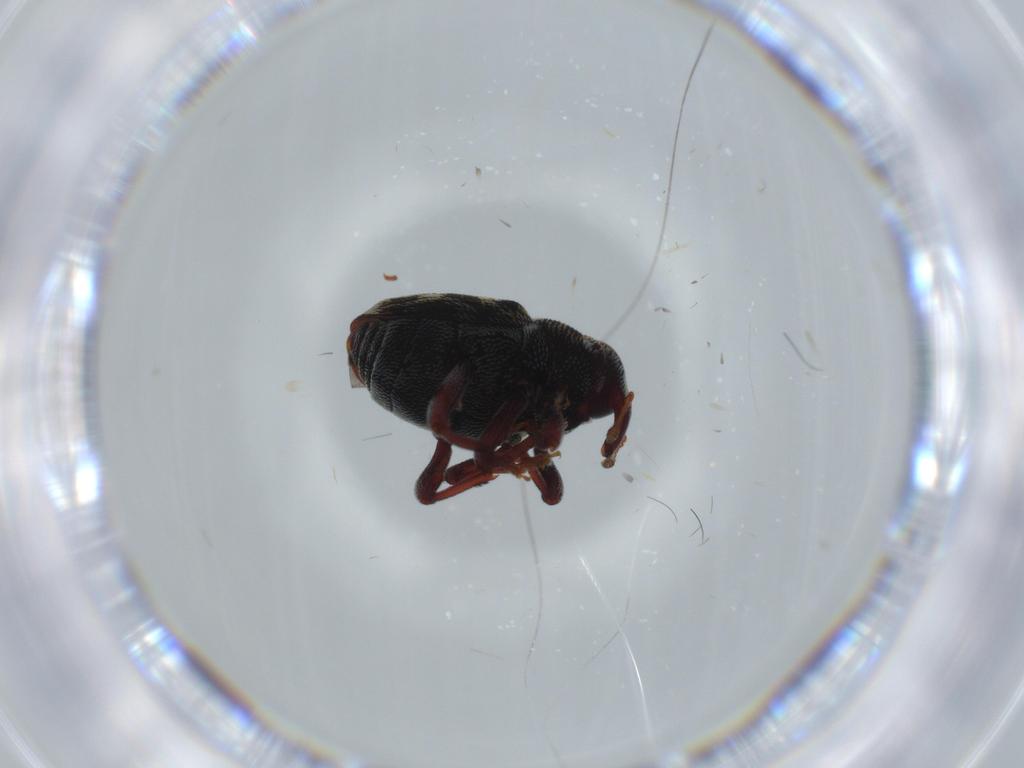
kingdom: Animalia
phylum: Arthropoda
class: Insecta
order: Coleoptera
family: Curculionidae
